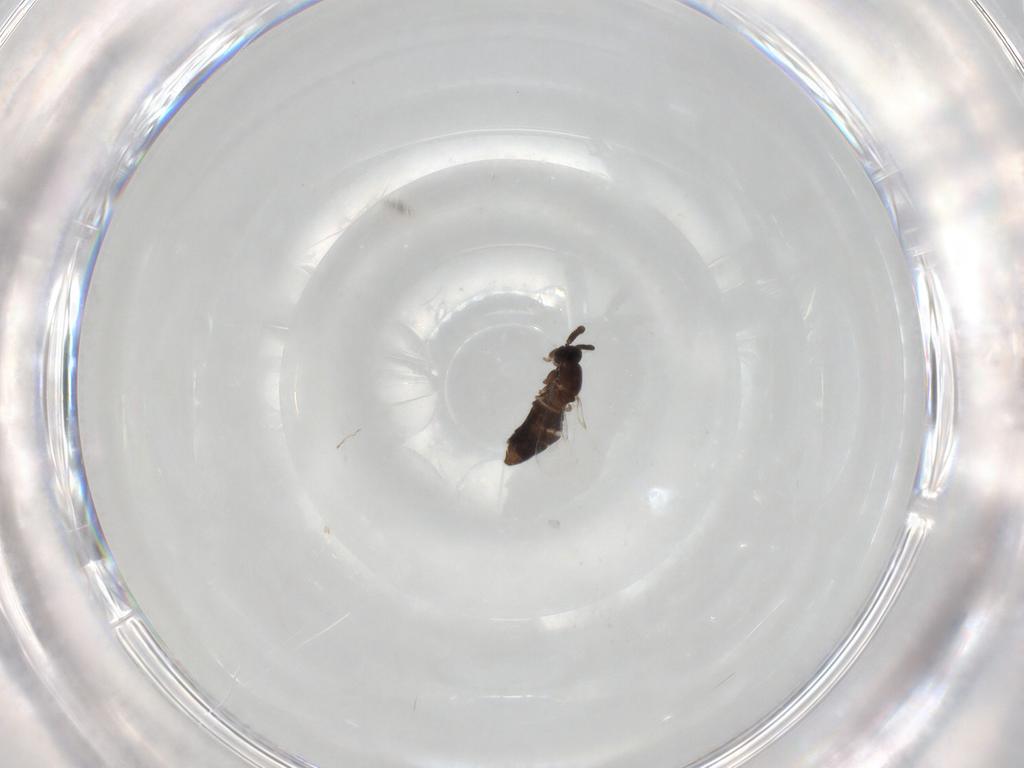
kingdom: Animalia
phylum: Arthropoda
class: Insecta
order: Diptera
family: Scatopsidae
